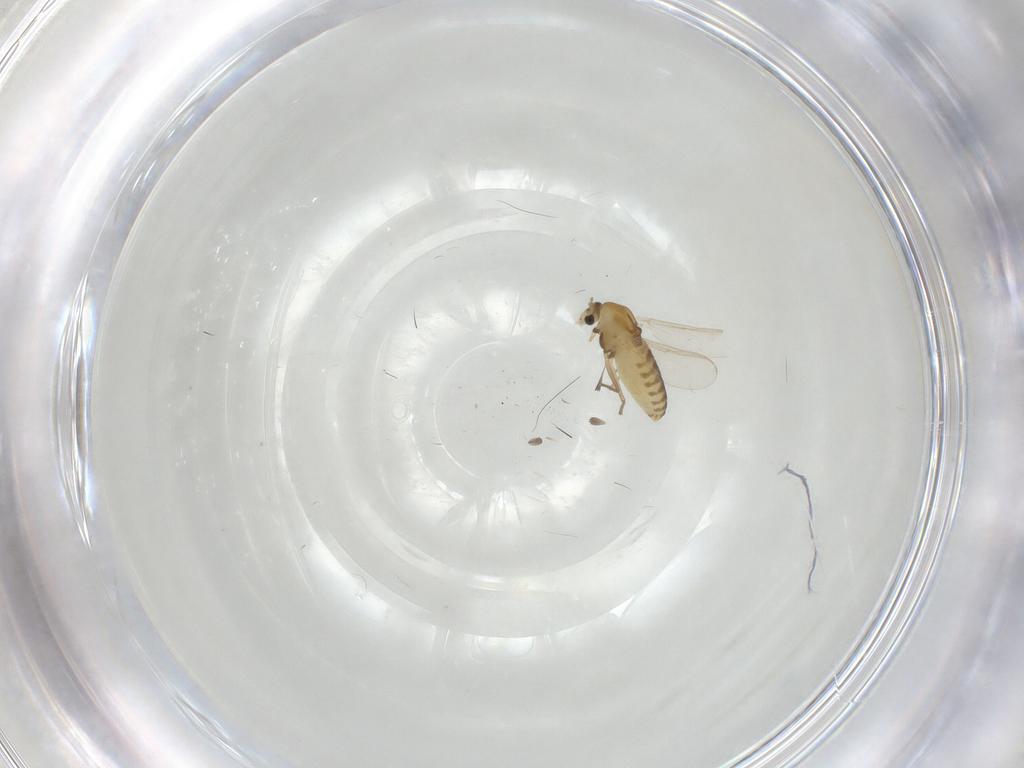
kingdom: Animalia
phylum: Arthropoda
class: Insecta
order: Diptera
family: Chironomidae
